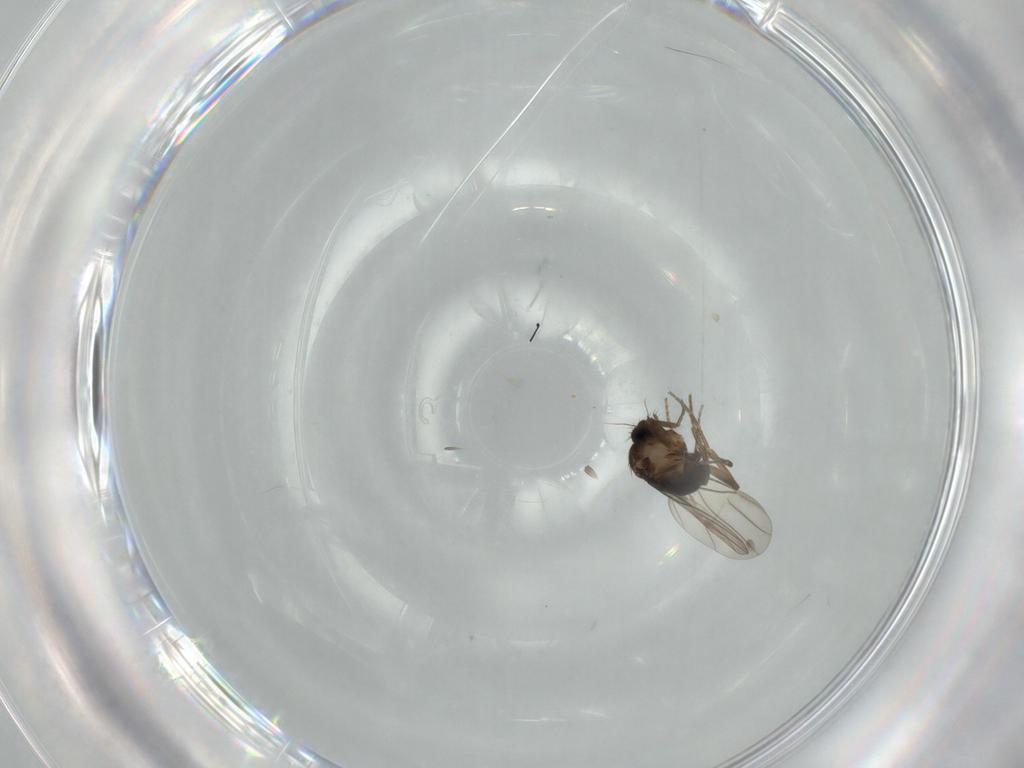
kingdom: Animalia
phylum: Arthropoda
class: Insecta
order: Diptera
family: Phoridae
